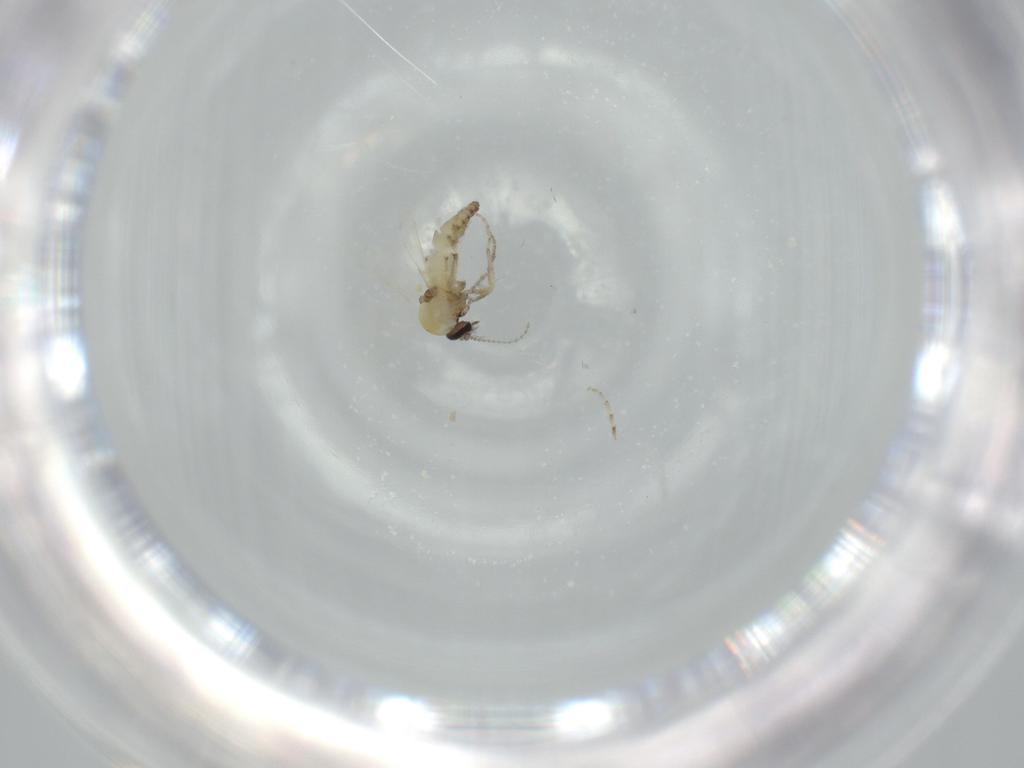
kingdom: Animalia
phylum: Arthropoda
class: Insecta
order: Diptera
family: Ceratopogonidae
